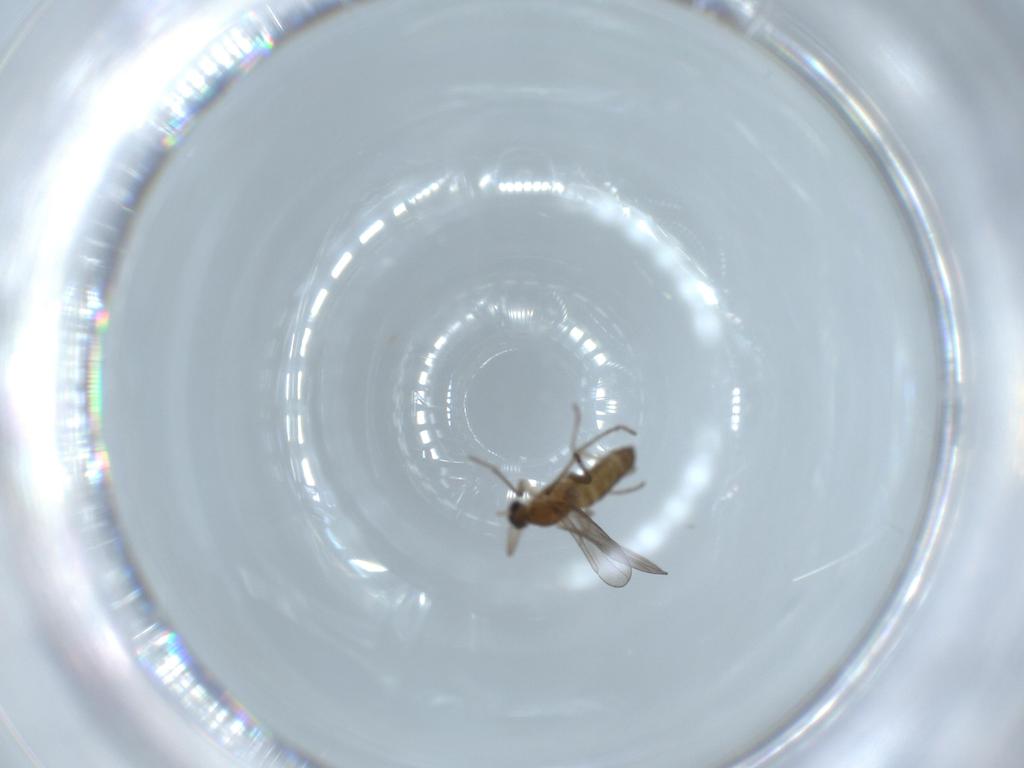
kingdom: Animalia
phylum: Arthropoda
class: Insecta
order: Diptera
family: Cecidomyiidae
